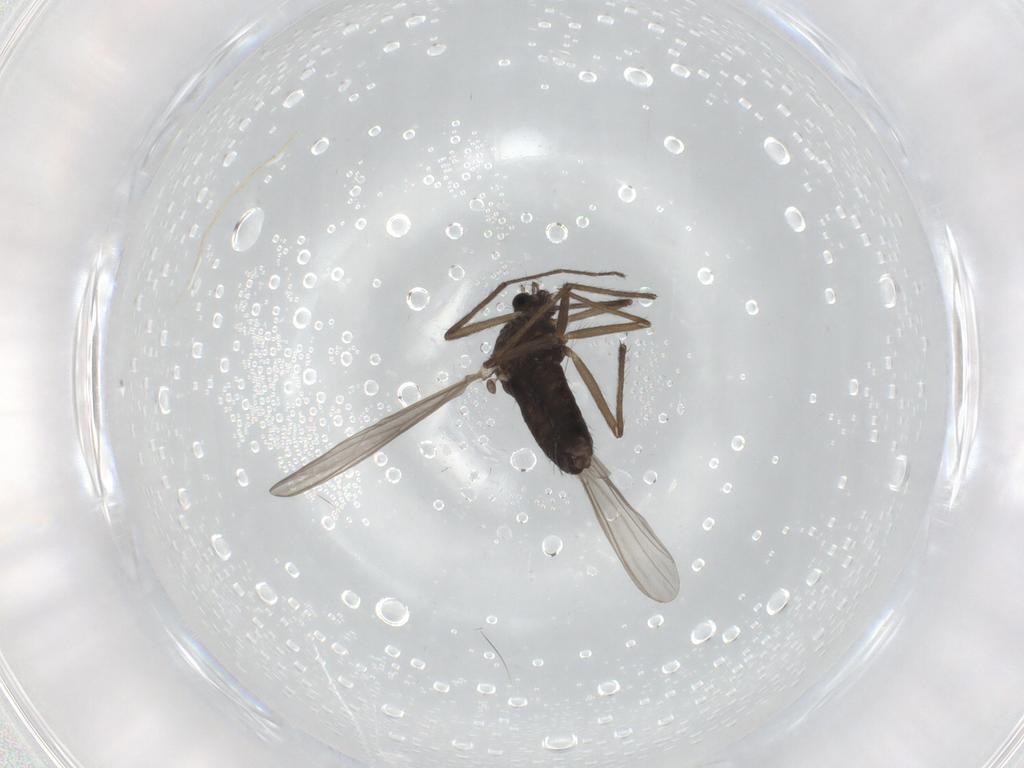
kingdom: Animalia
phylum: Arthropoda
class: Insecta
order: Diptera
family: Chironomidae
